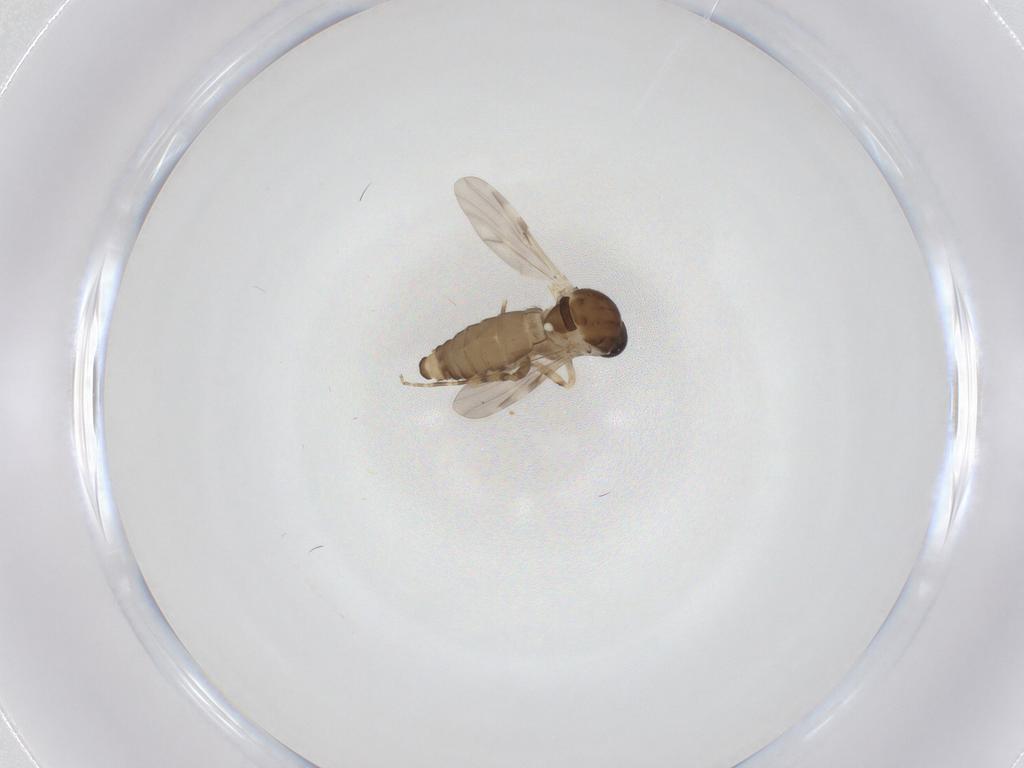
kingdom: Animalia
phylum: Arthropoda
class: Insecta
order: Diptera
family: Ceratopogonidae
